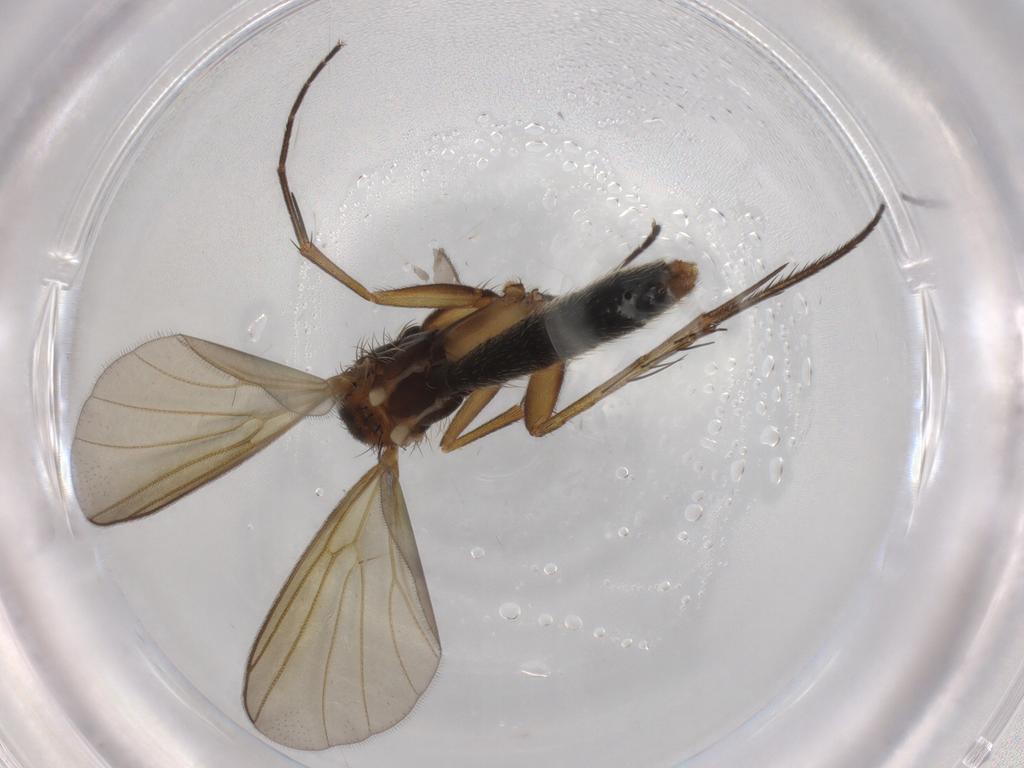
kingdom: Animalia
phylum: Arthropoda
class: Insecta
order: Diptera
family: Mycetophilidae
